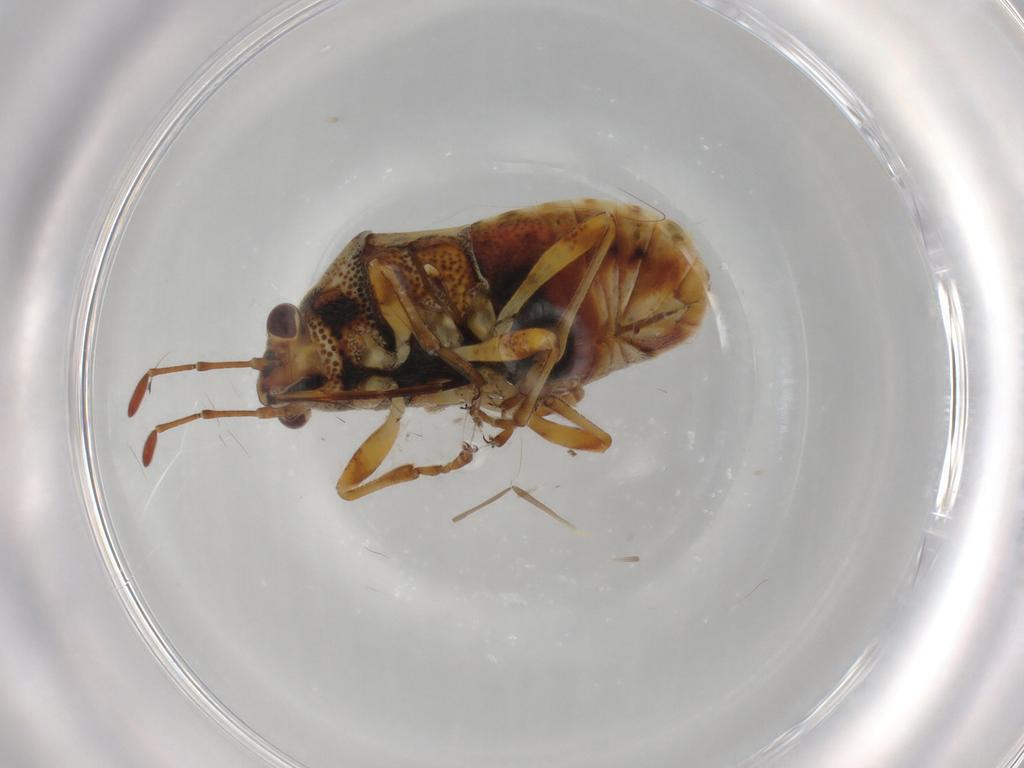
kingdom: Animalia
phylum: Arthropoda
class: Insecta
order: Hemiptera
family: Lygaeidae
